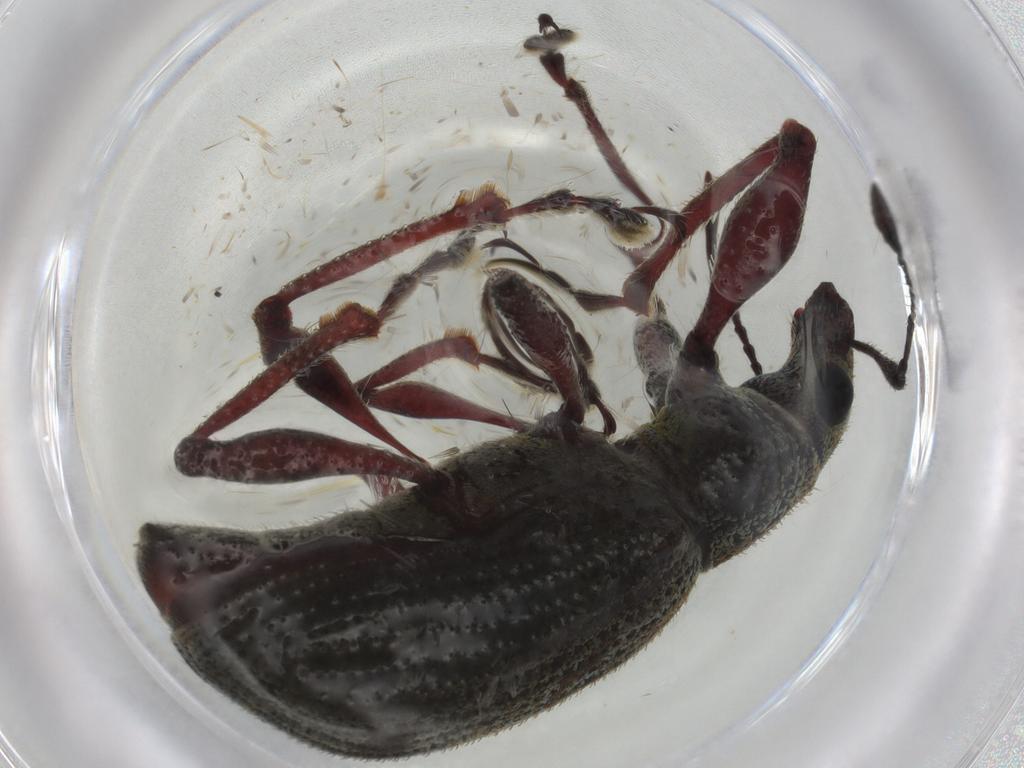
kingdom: Animalia
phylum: Arthropoda
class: Insecta
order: Coleoptera
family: Curculionidae
